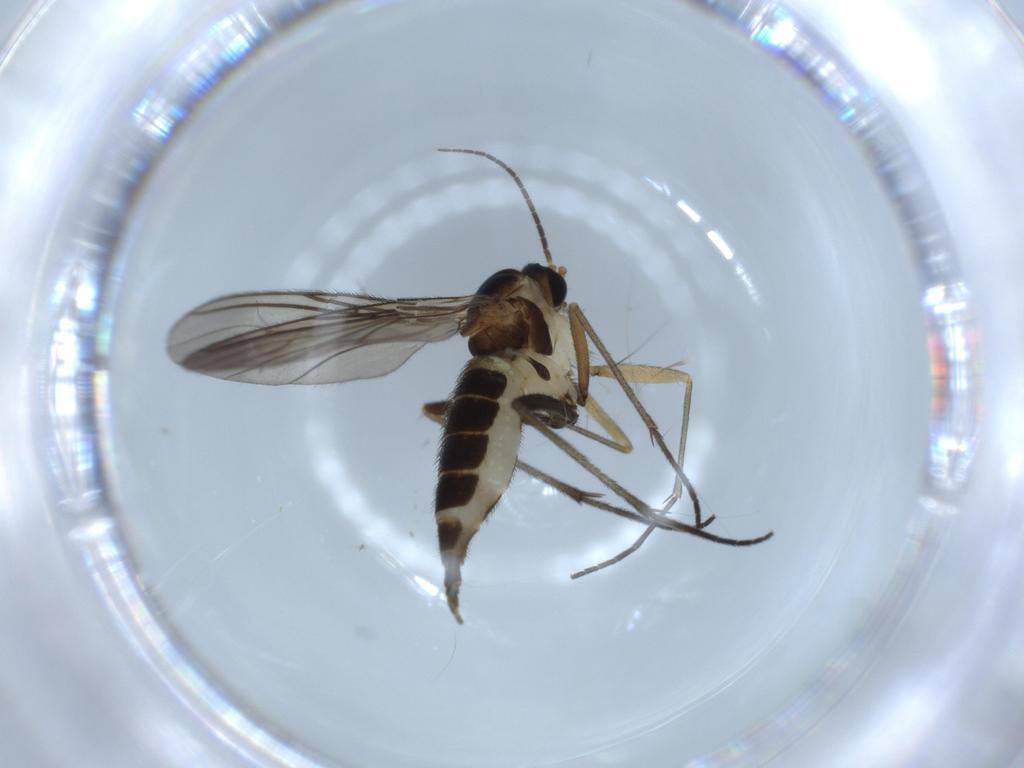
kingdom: Animalia
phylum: Arthropoda
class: Insecta
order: Diptera
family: Sciaridae
